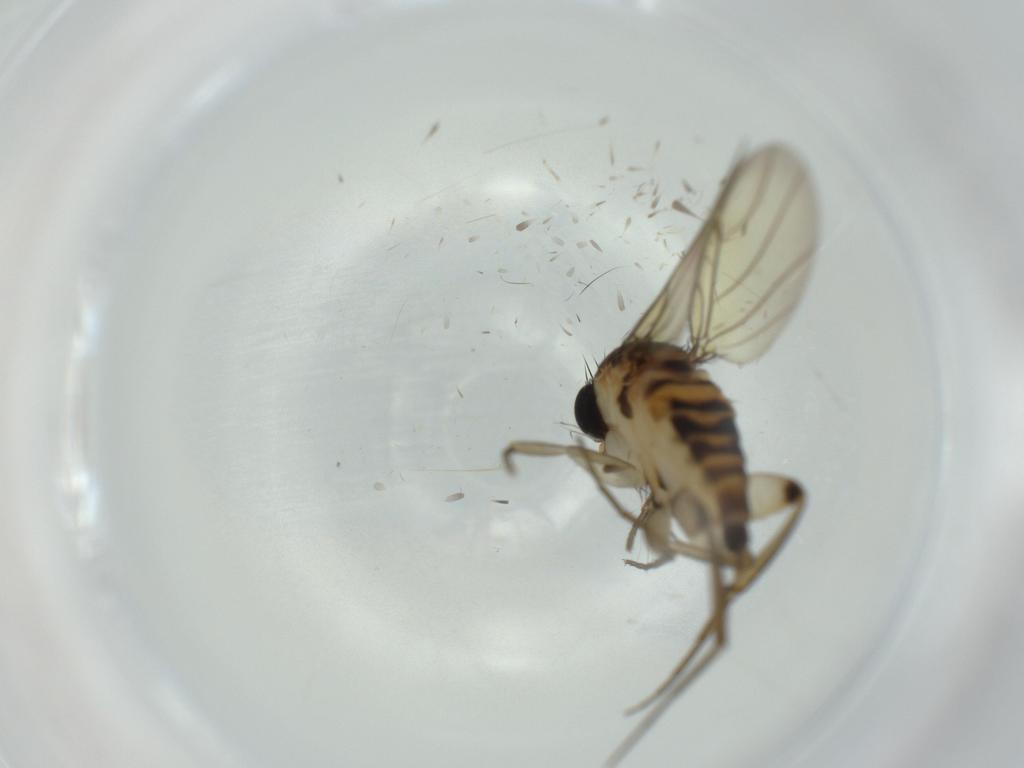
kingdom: Animalia
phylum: Arthropoda
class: Insecta
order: Diptera
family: Phoridae
